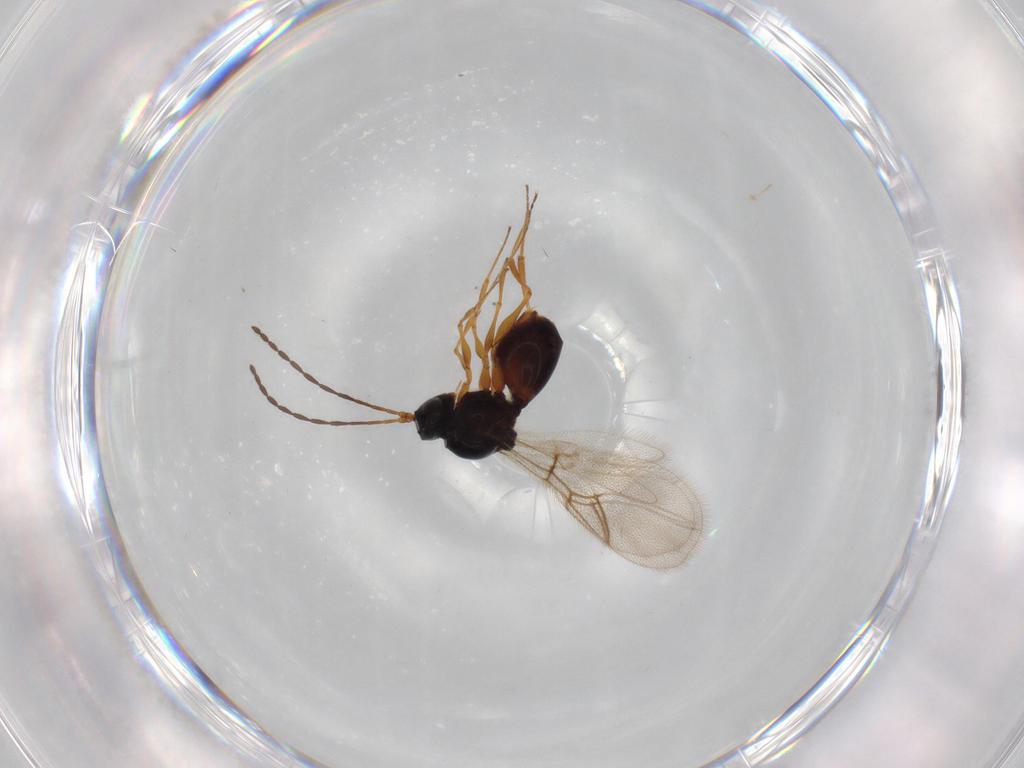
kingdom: Animalia
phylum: Arthropoda
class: Insecta
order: Hymenoptera
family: Figitidae
